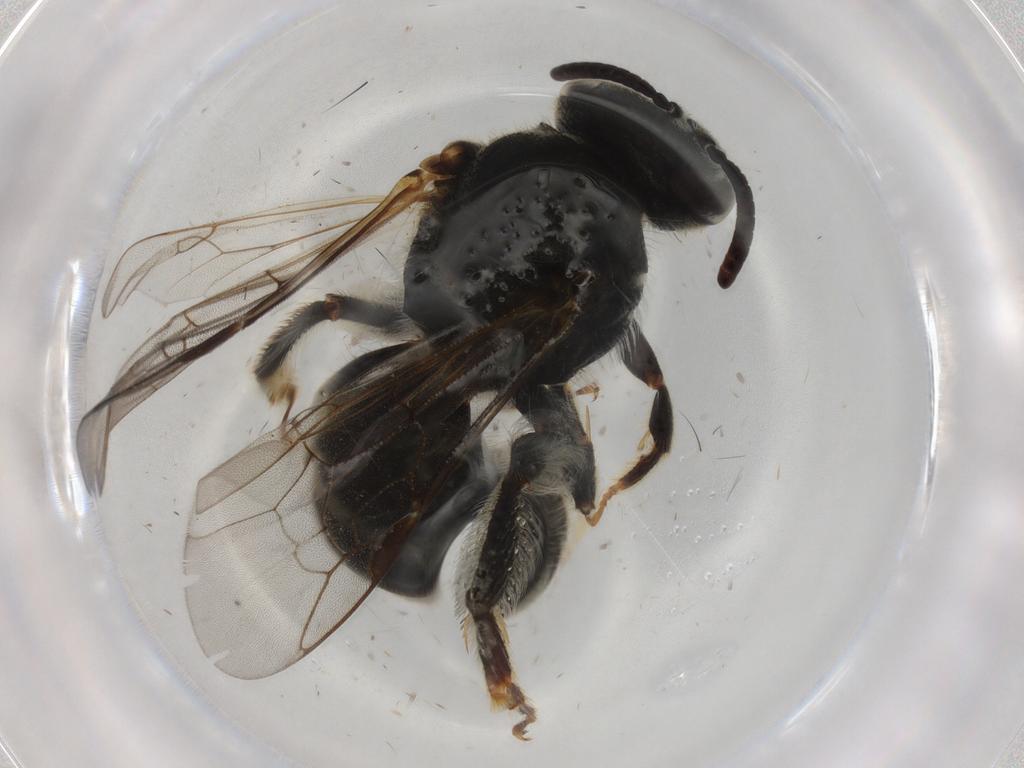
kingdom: Animalia
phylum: Arthropoda
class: Insecta
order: Hymenoptera
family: Halictidae
